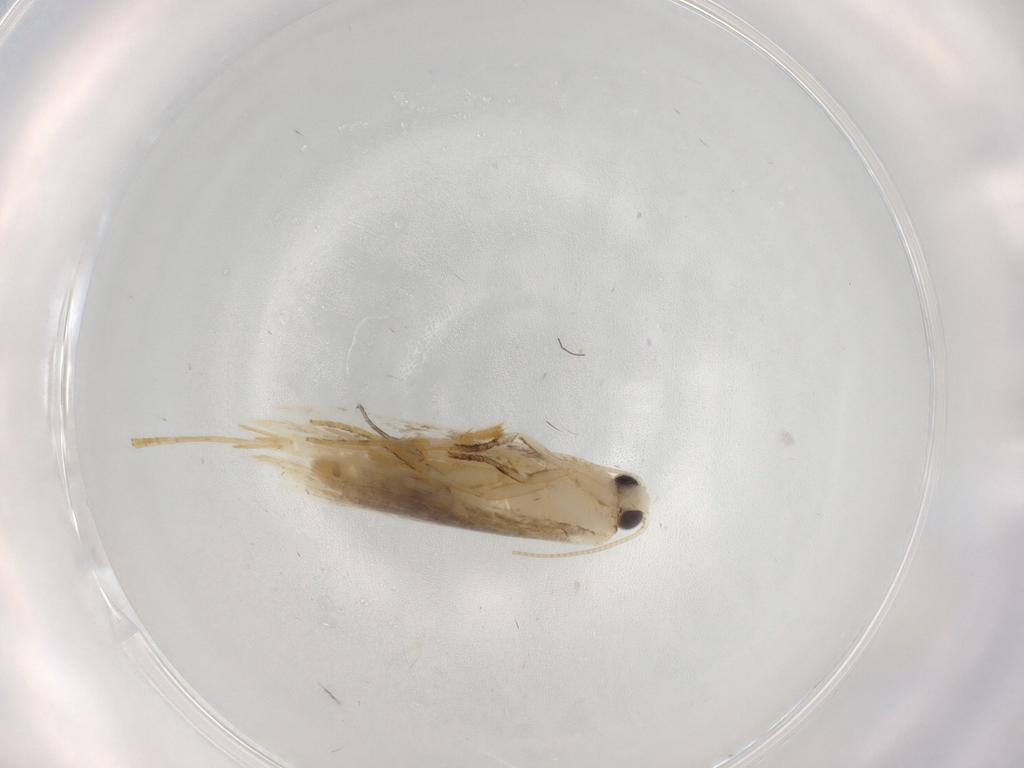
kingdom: Animalia
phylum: Arthropoda
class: Insecta
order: Lepidoptera
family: Tineidae
